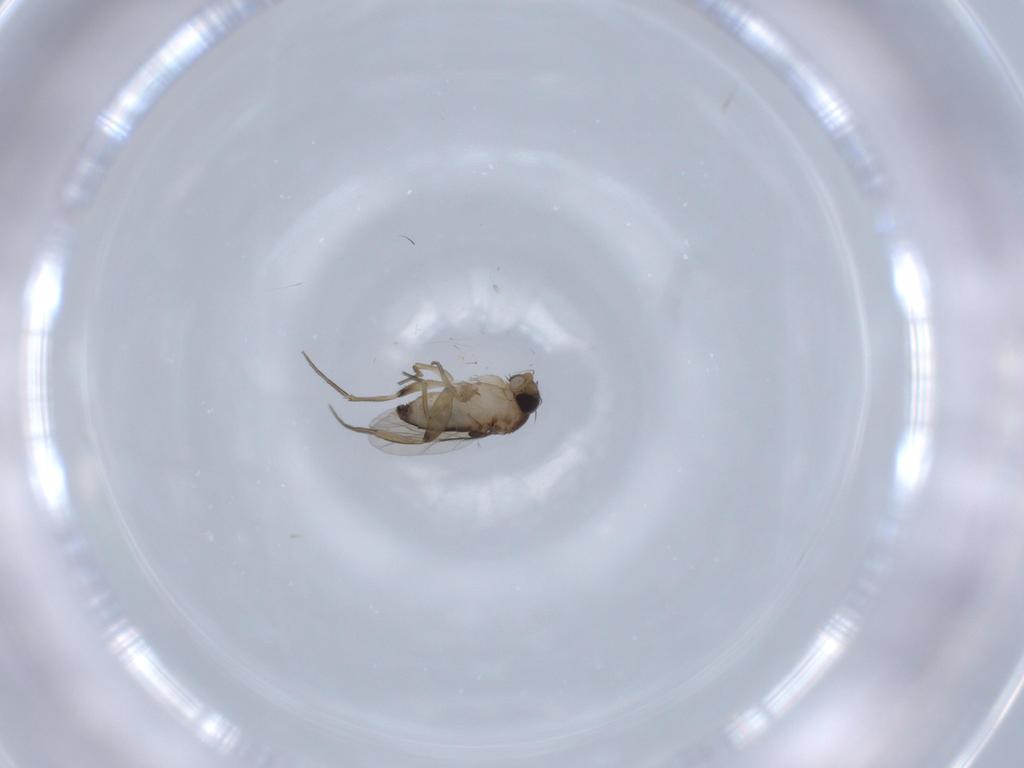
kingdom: Animalia
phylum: Arthropoda
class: Insecta
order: Diptera
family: Phoridae
